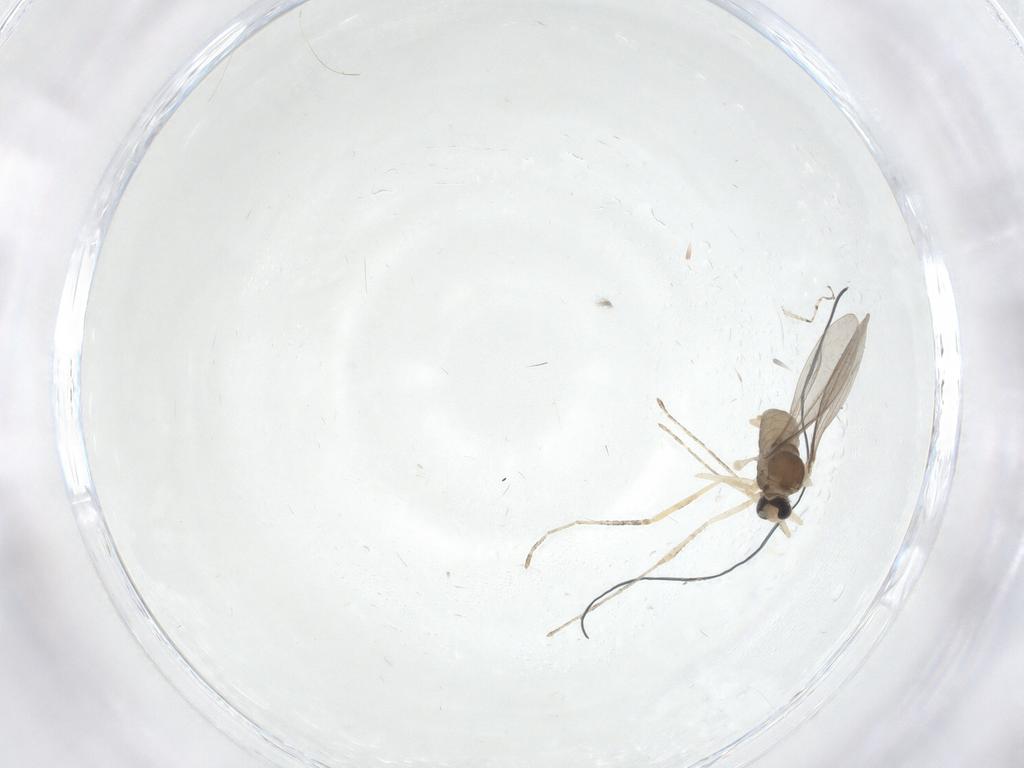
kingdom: Animalia
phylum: Arthropoda
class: Insecta
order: Diptera
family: Cecidomyiidae
